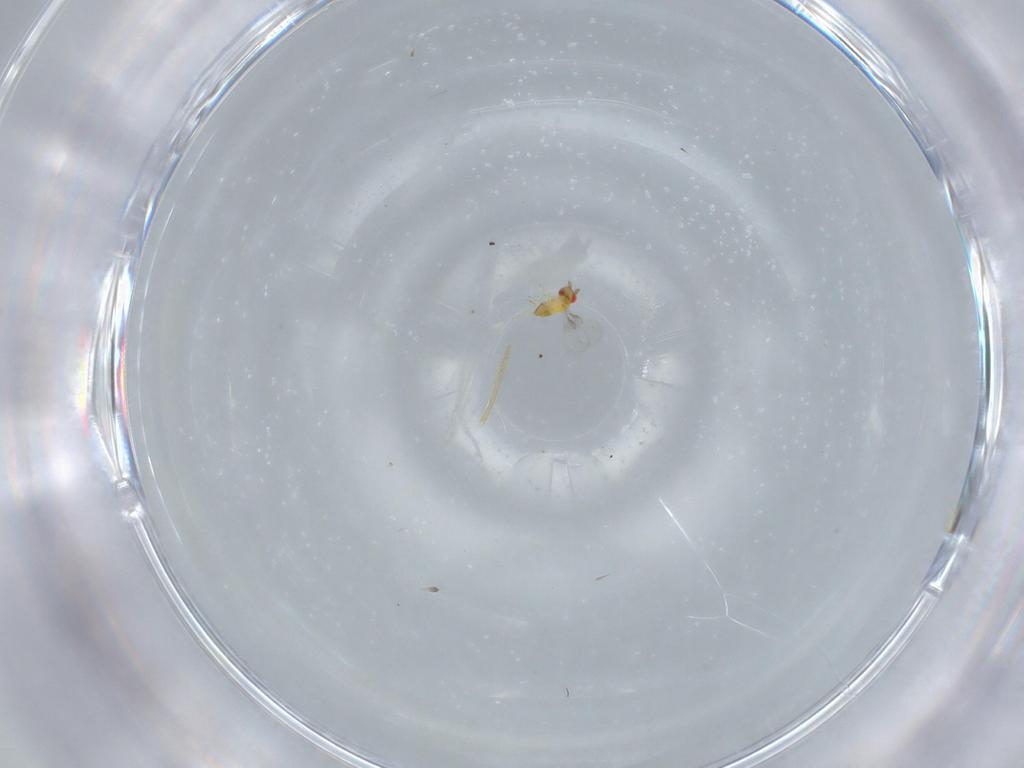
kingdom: Animalia
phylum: Arthropoda
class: Insecta
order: Hymenoptera
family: Trichogrammatidae
